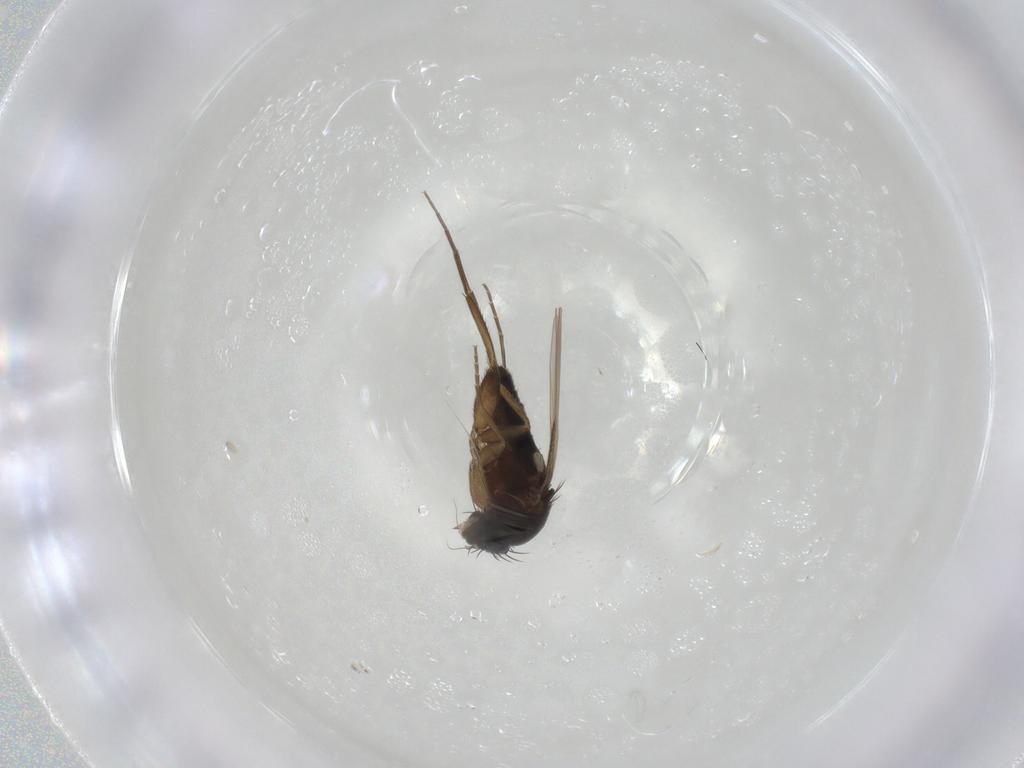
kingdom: Animalia
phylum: Arthropoda
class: Insecta
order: Diptera
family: Phoridae
